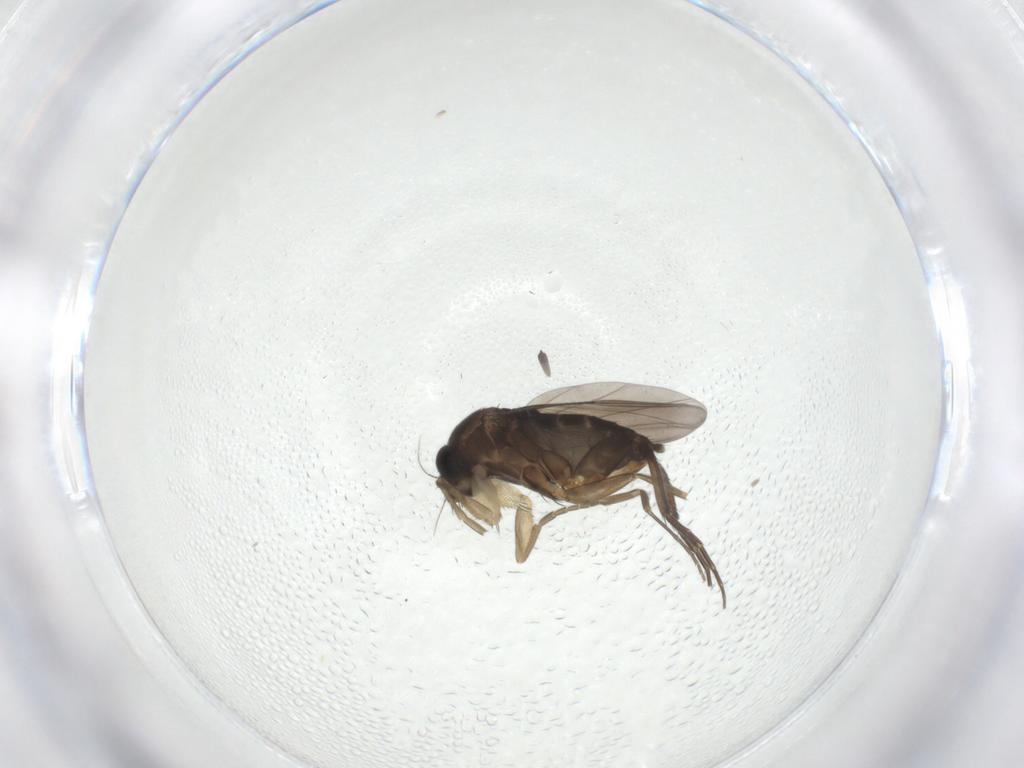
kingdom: Animalia
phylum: Arthropoda
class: Insecta
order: Diptera
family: Phoridae
